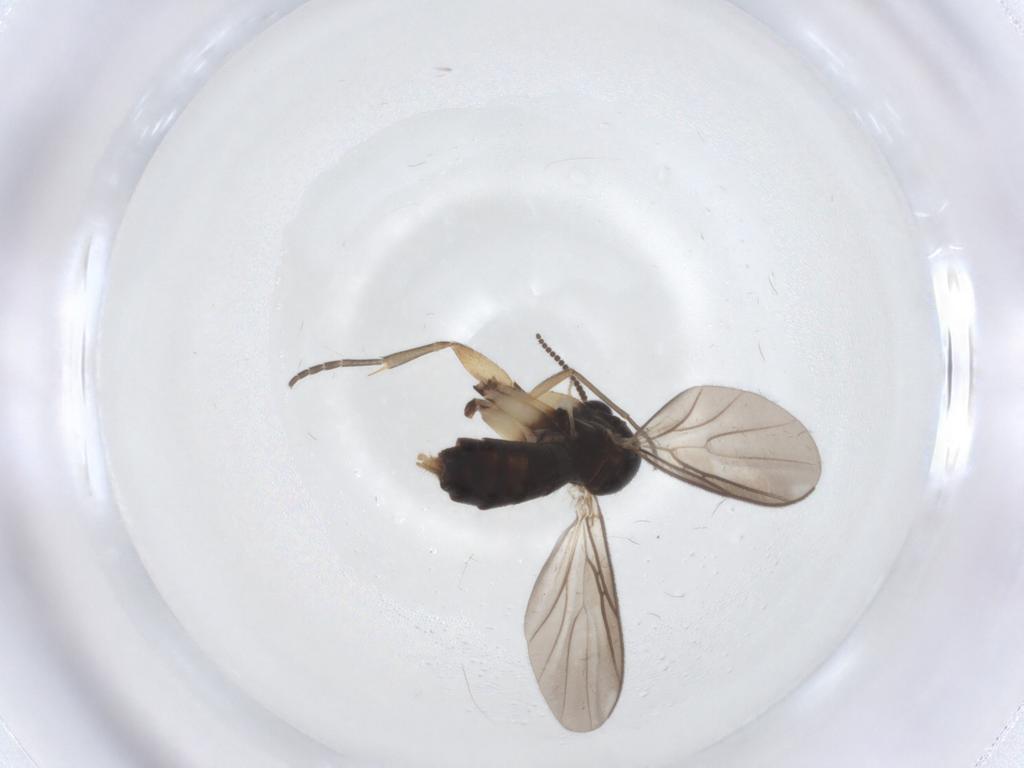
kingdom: Animalia
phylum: Arthropoda
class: Insecta
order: Diptera
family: Mycetophilidae
